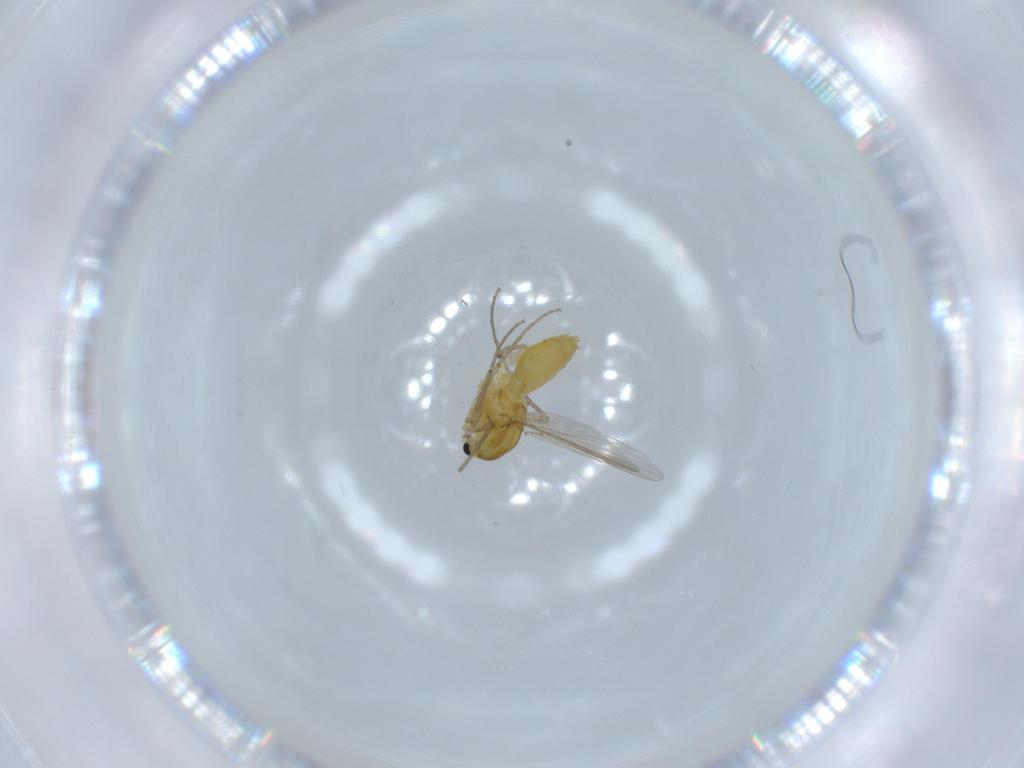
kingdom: Animalia
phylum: Arthropoda
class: Insecta
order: Diptera
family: Chironomidae
